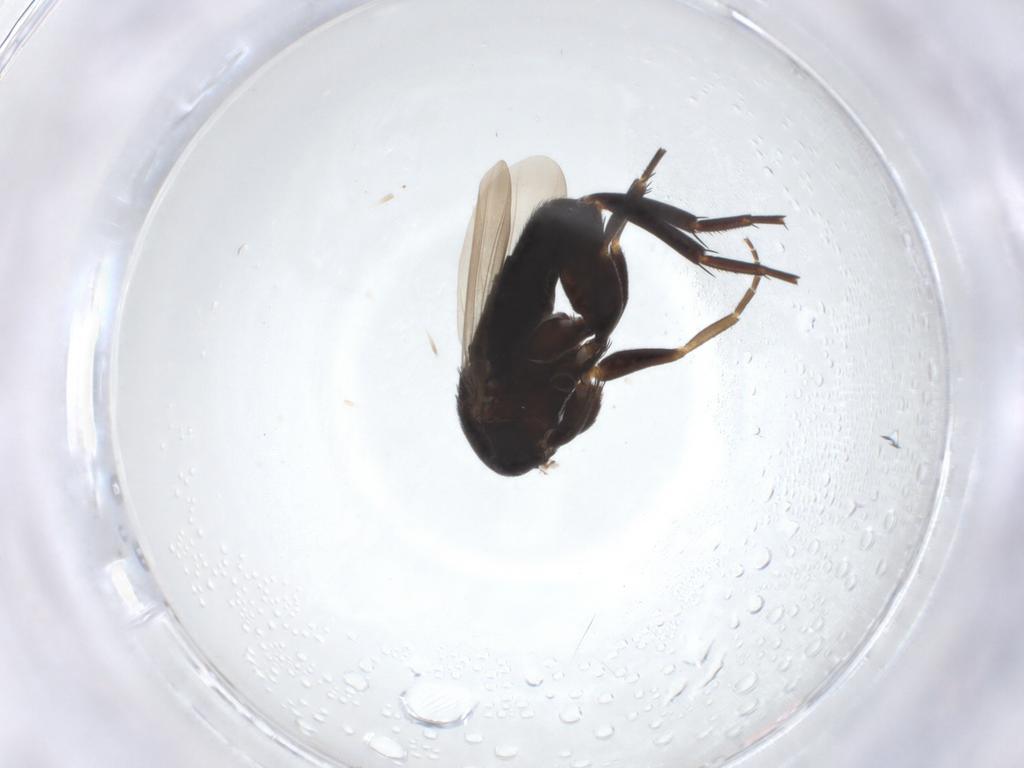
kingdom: Animalia
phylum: Arthropoda
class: Insecta
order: Diptera
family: Phoridae
